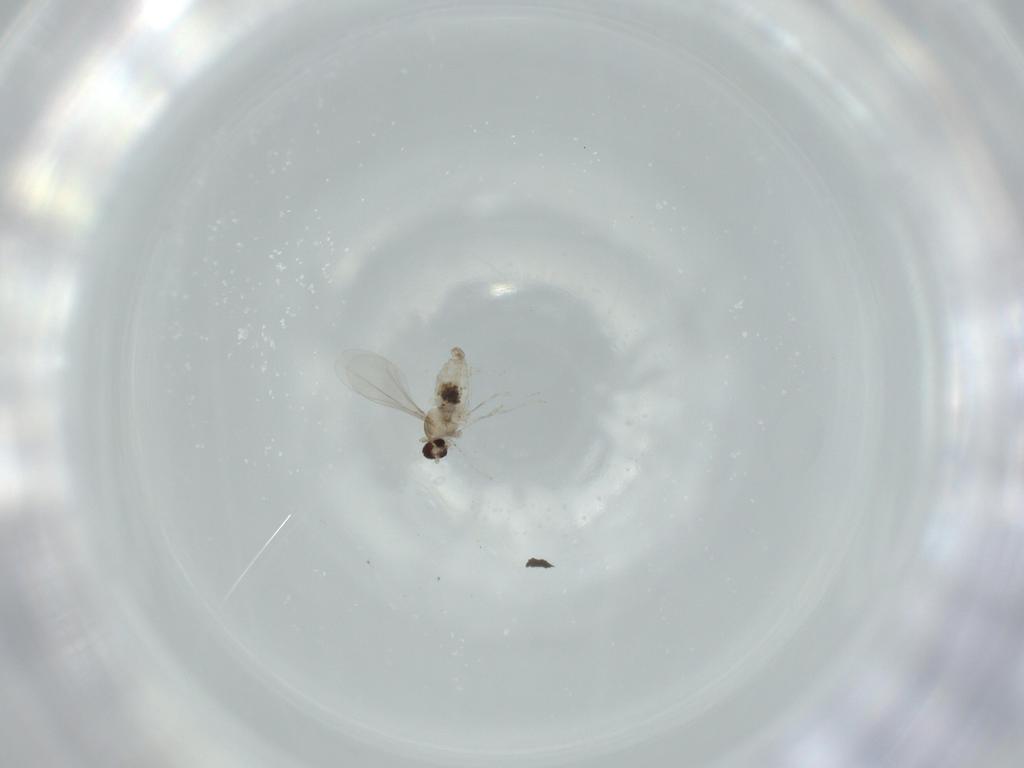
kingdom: Animalia
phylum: Arthropoda
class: Insecta
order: Diptera
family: Cecidomyiidae
